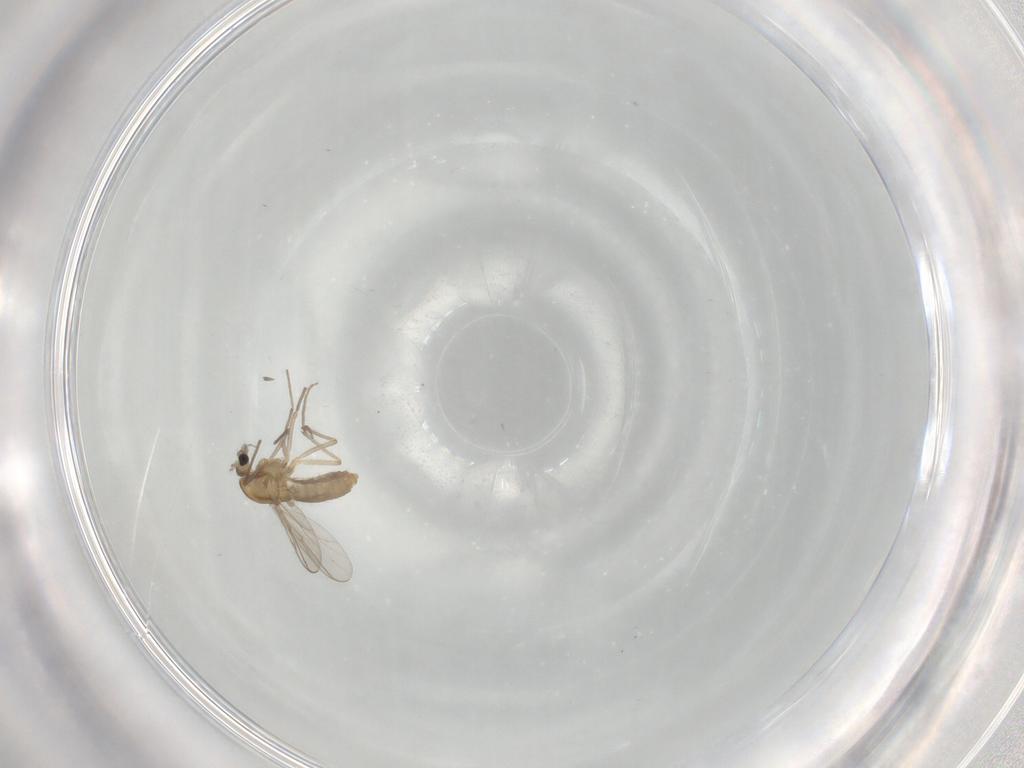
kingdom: Animalia
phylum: Arthropoda
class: Insecta
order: Diptera
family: Chironomidae
